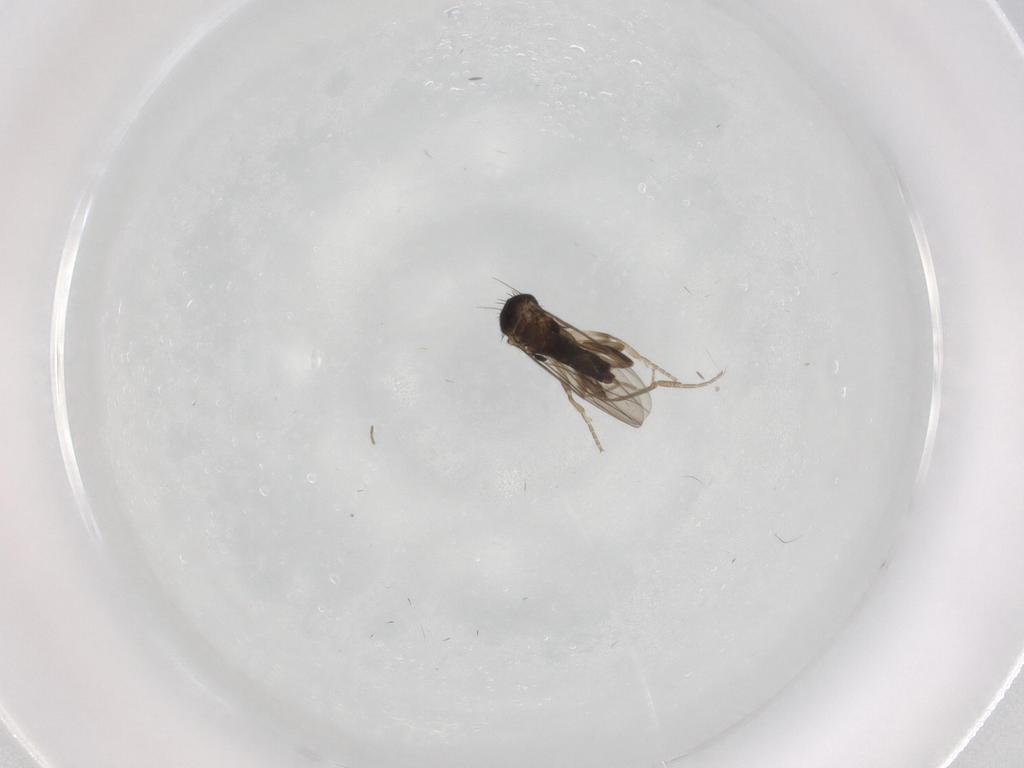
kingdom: Animalia
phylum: Arthropoda
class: Insecta
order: Diptera
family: Phoridae
